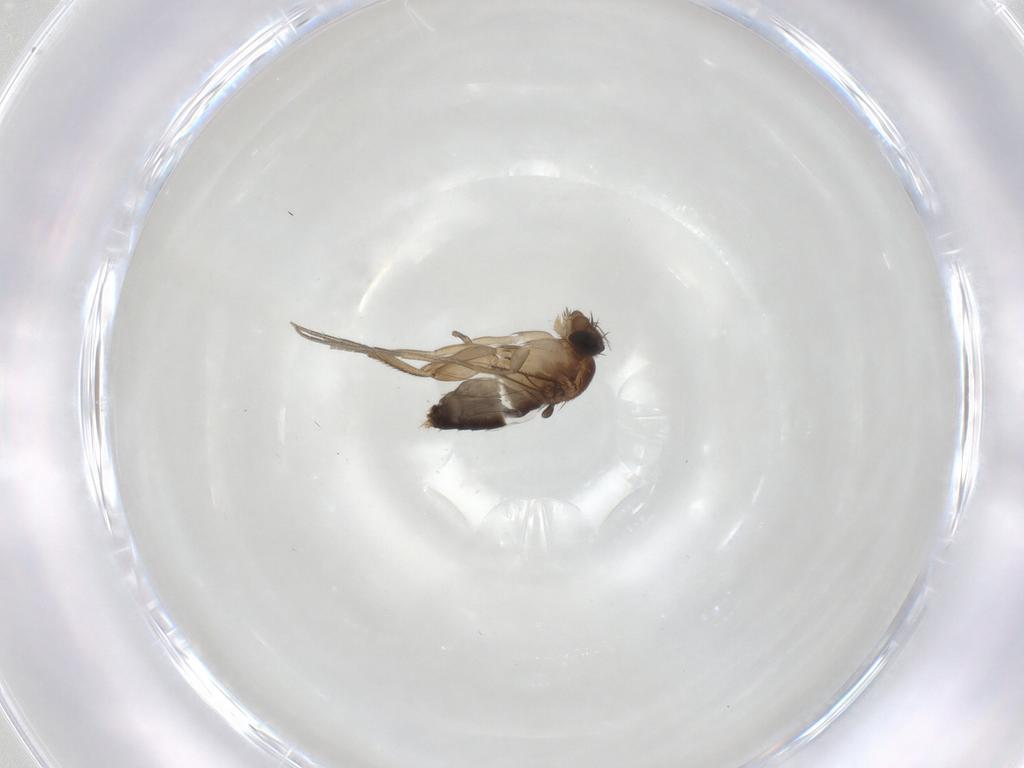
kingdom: Animalia
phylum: Arthropoda
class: Insecta
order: Diptera
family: Phoridae
